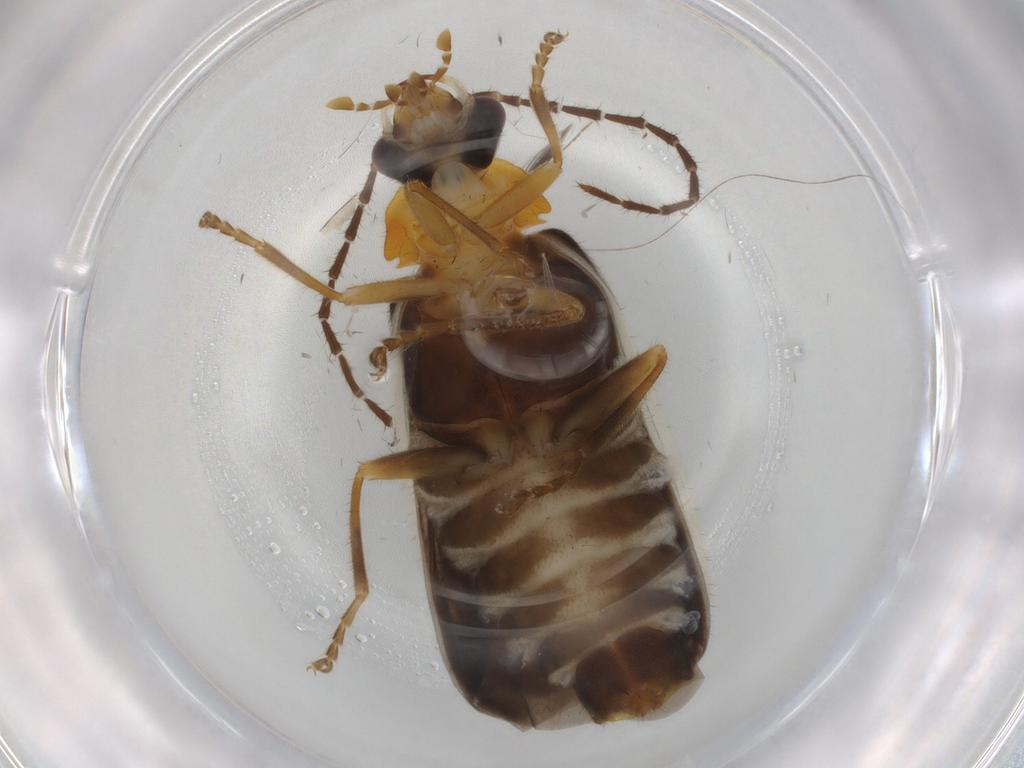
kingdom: Animalia
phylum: Arthropoda
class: Insecta
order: Coleoptera
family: Cantharidae
